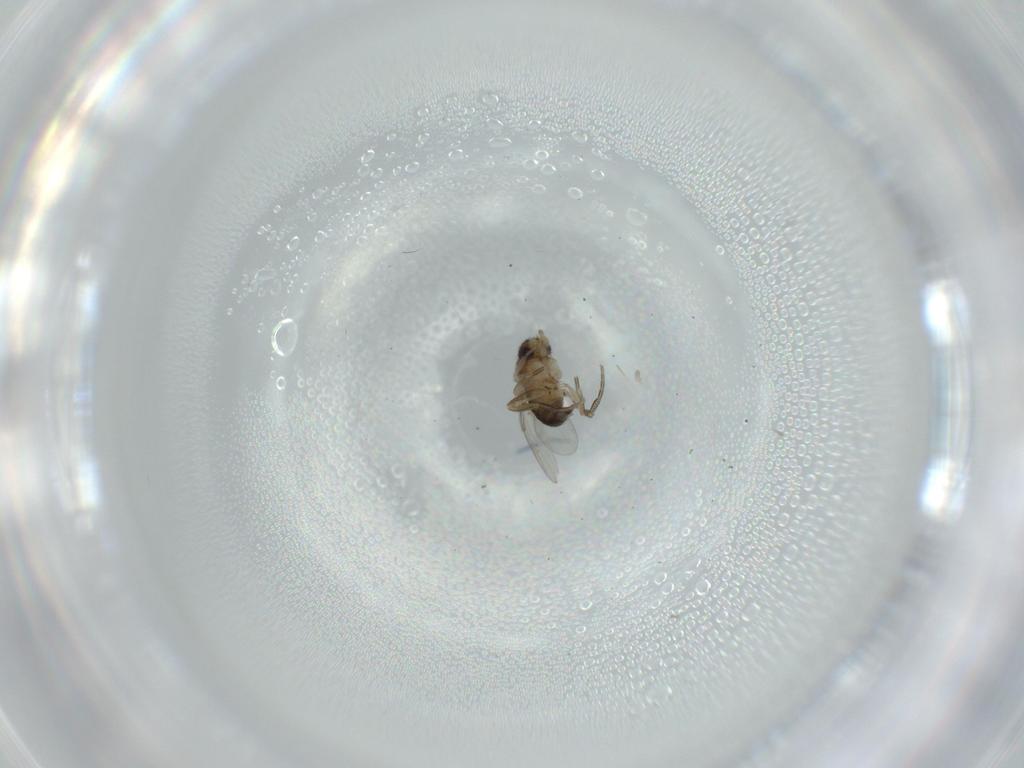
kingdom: Animalia
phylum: Arthropoda
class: Insecta
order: Diptera
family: Phoridae
